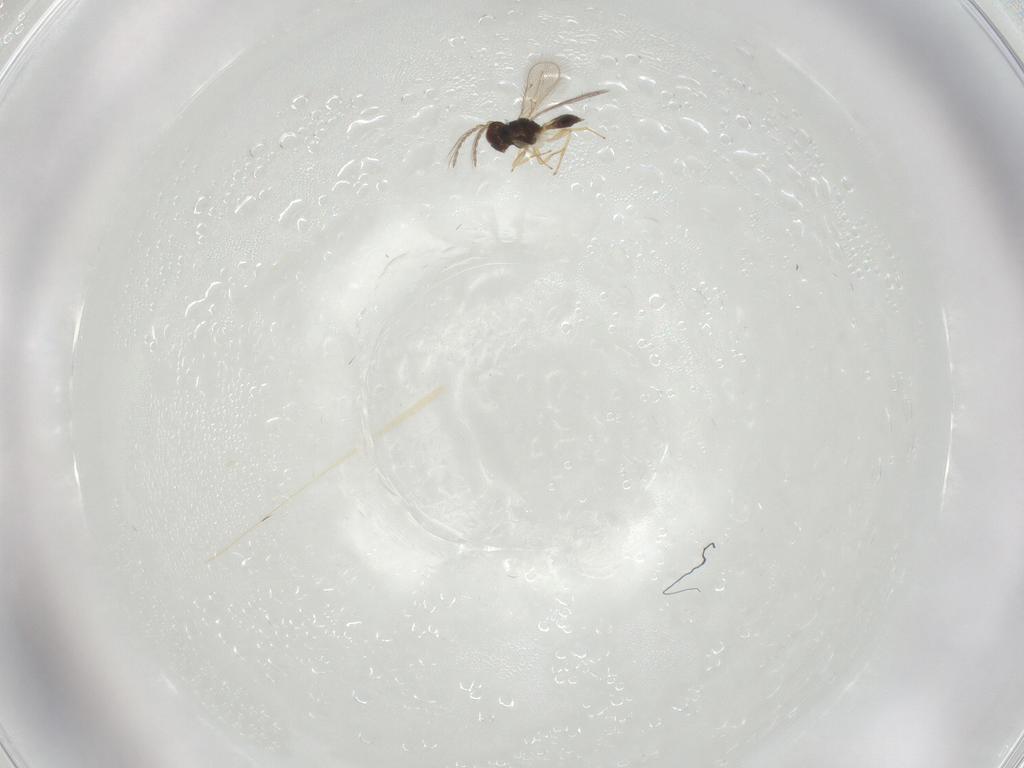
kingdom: Animalia
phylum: Arthropoda
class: Insecta
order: Hymenoptera
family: Eulophidae
